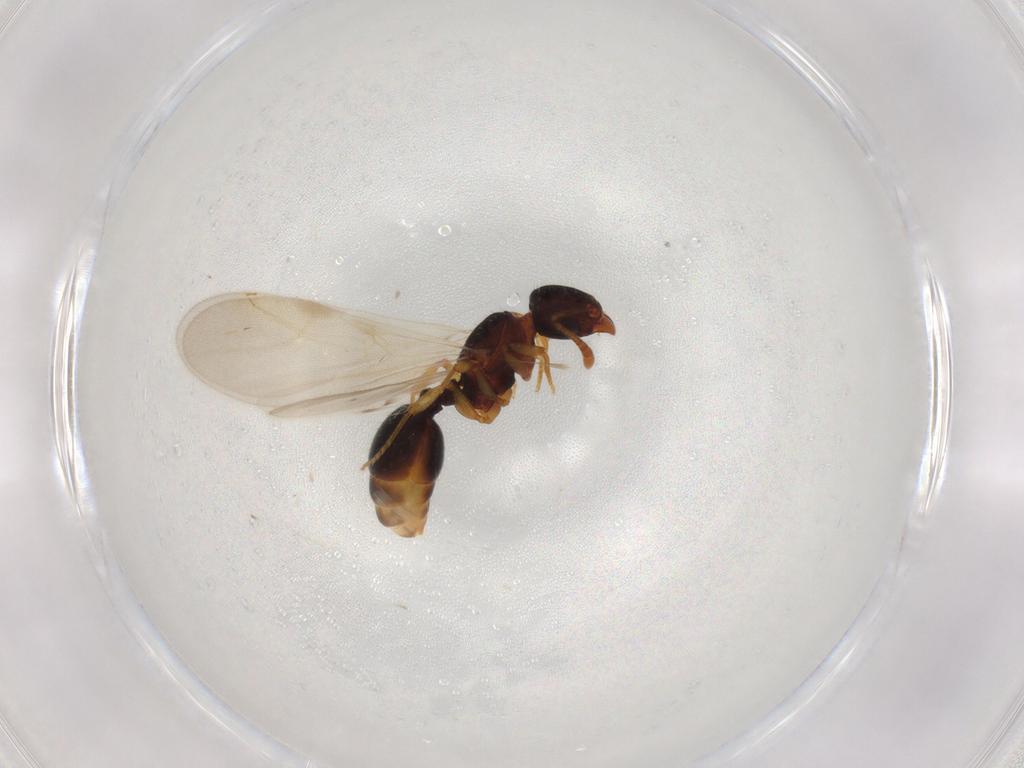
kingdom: Animalia
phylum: Arthropoda
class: Insecta
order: Hymenoptera
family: Formicidae
